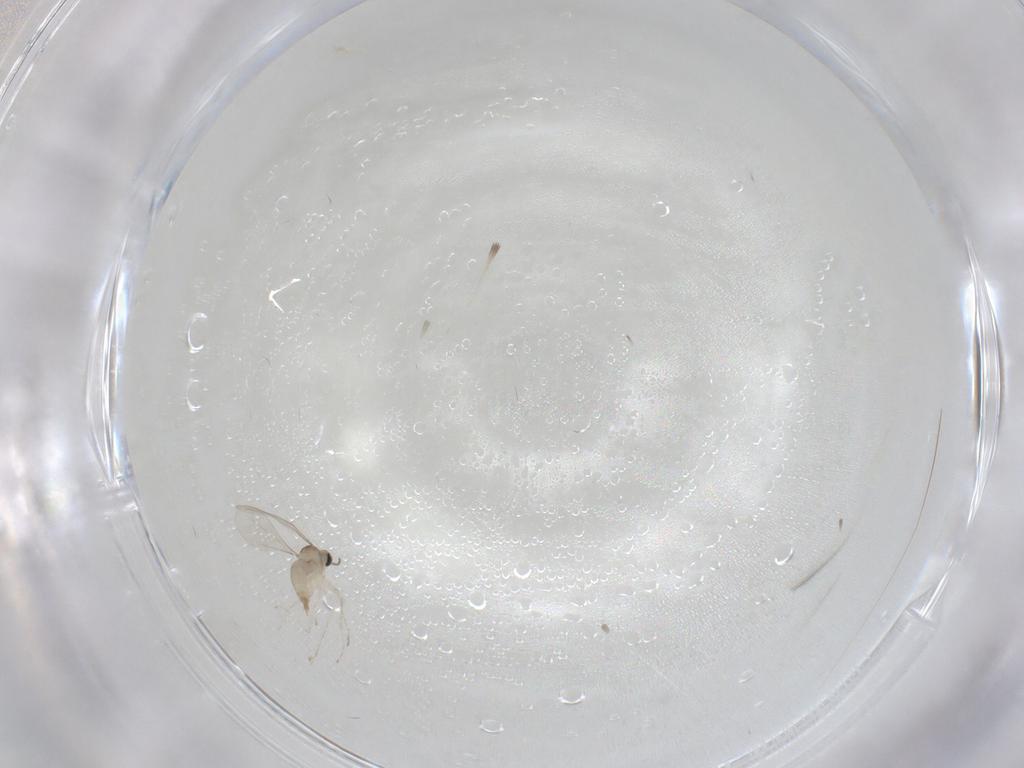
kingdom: Animalia
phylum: Arthropoda
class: Insecta
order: Diptera
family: Cecidomyiidae
